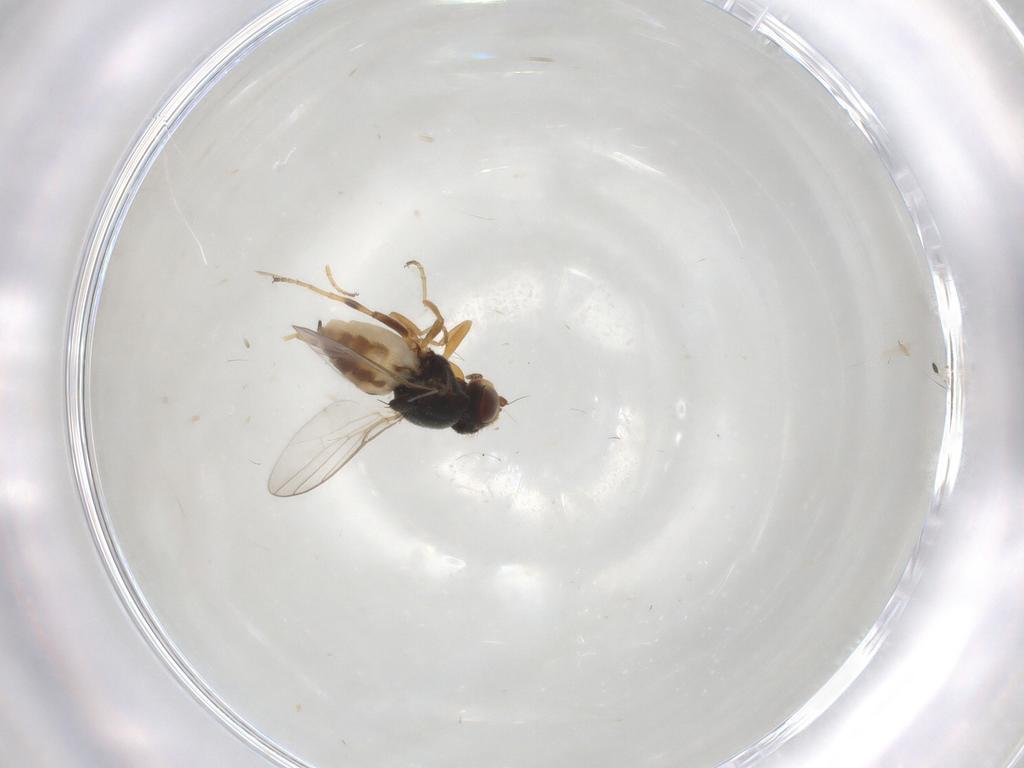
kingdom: Animalia
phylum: Arthropoda
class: Insecta
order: Diptera
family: Chloropidae
